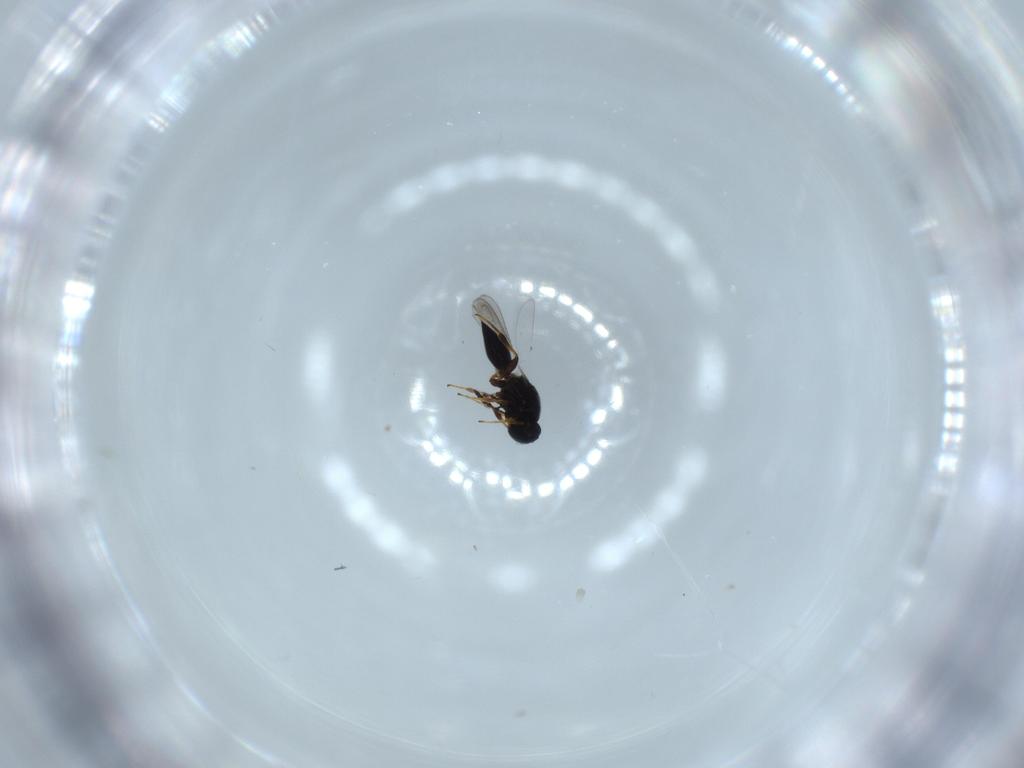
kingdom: Animalia
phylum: Arthropoda
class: Insecta
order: Hymenoptera
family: Platygastridae
